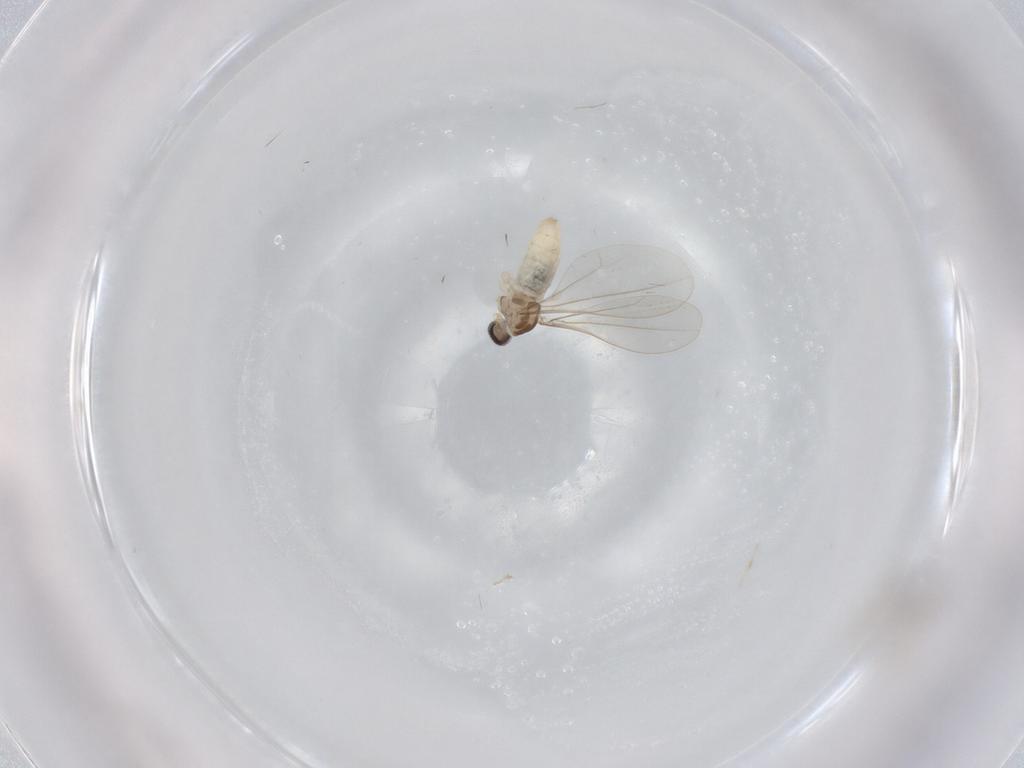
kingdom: Animalia
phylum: Arthropoda
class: Insecta
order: Diptera
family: Cecidomyiidae
